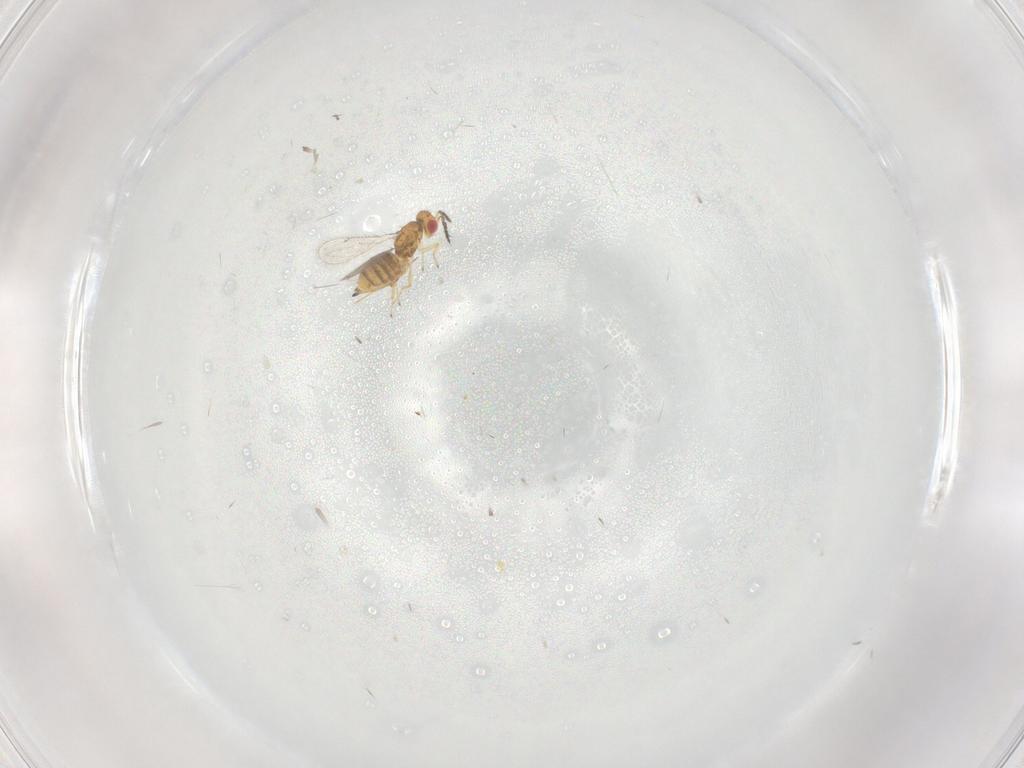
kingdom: Animalia
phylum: Arthropoda
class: Insecta
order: Hymenoptera
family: Eulophidae
